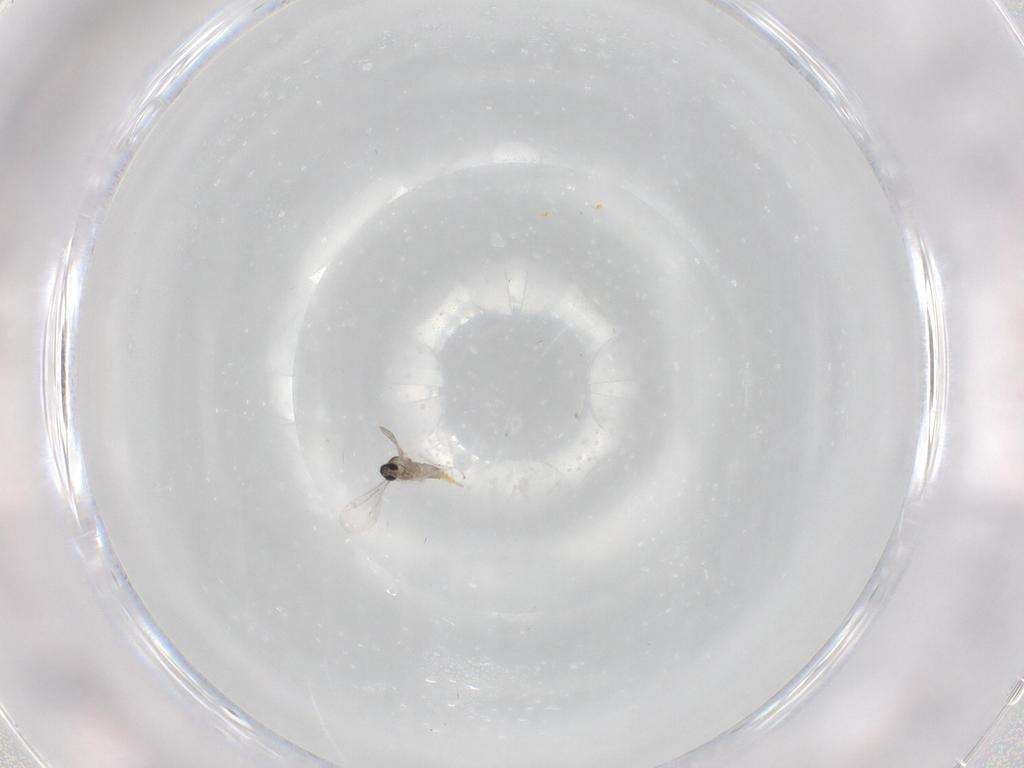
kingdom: Animalia
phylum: Arthropoda
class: Insecta
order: Diptera
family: Cecidomyiidae
